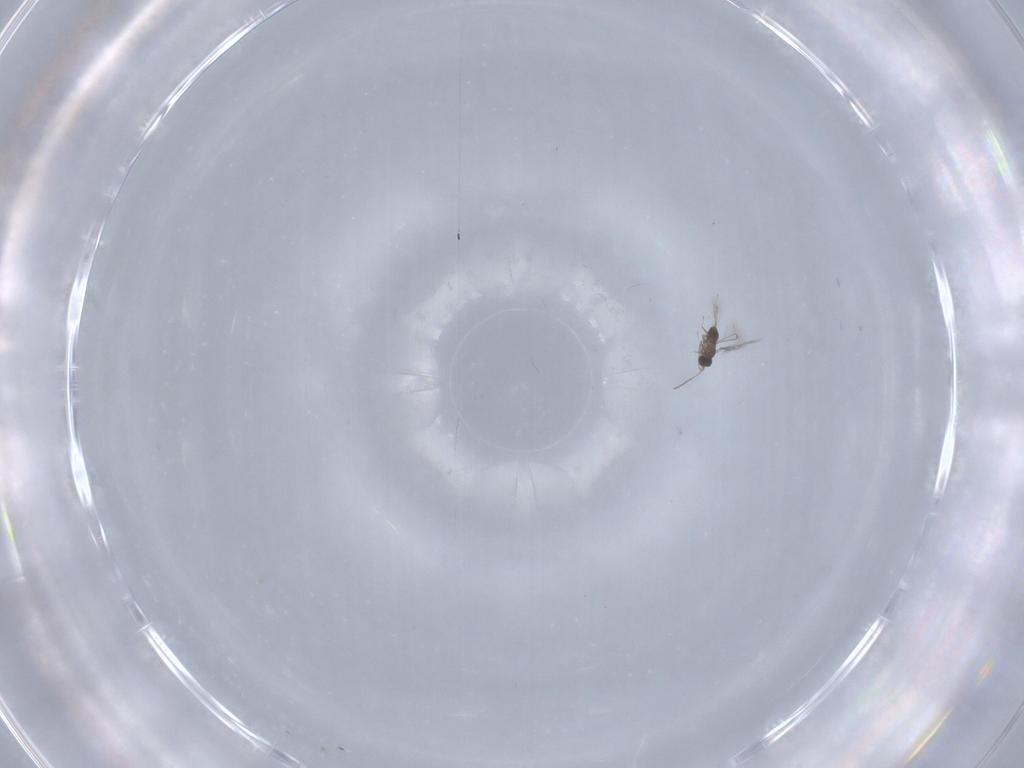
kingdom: Animalia
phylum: Arthropoda
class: Insecta
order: Hymenoptera
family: Mymaridae
